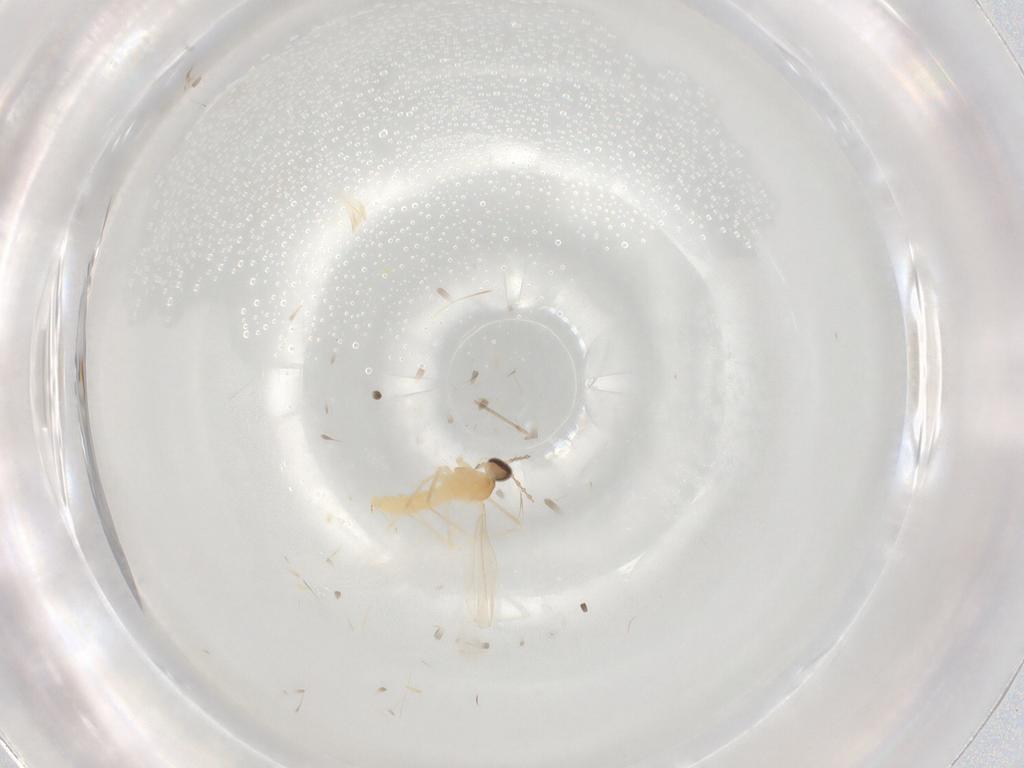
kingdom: Animalia
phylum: Arthropoda
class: Insecta
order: Diptera
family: Cecidomyiidae
